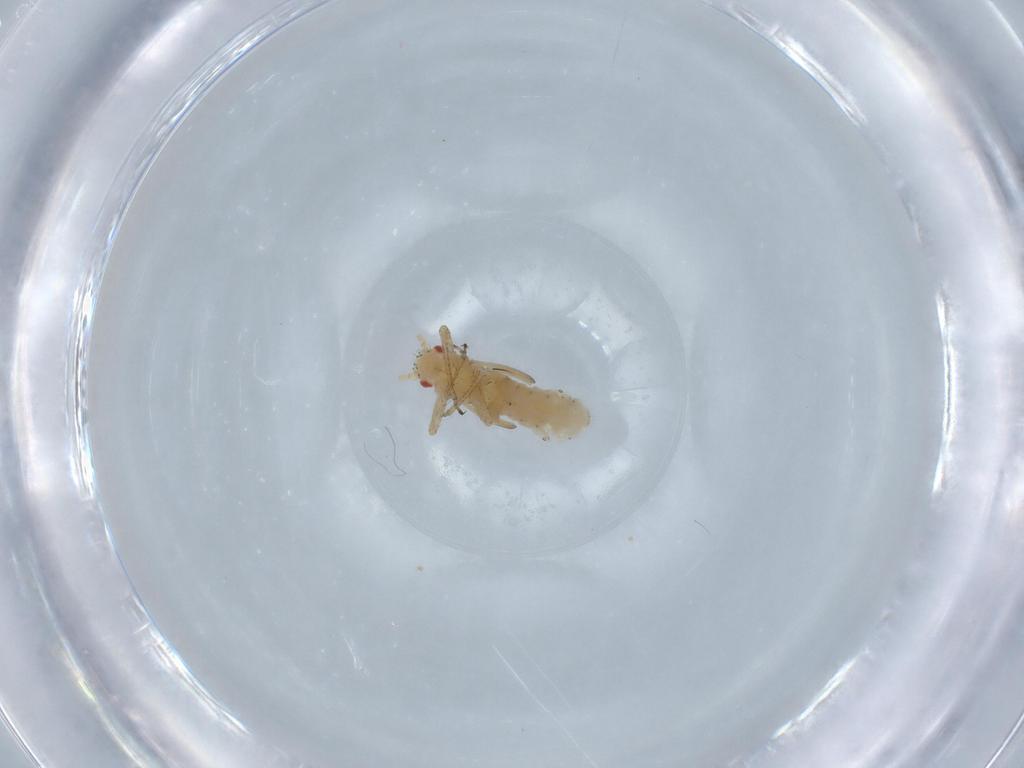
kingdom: Animalia
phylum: Arthropoda
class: Insecta
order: Hemiptera
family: Aphididae
